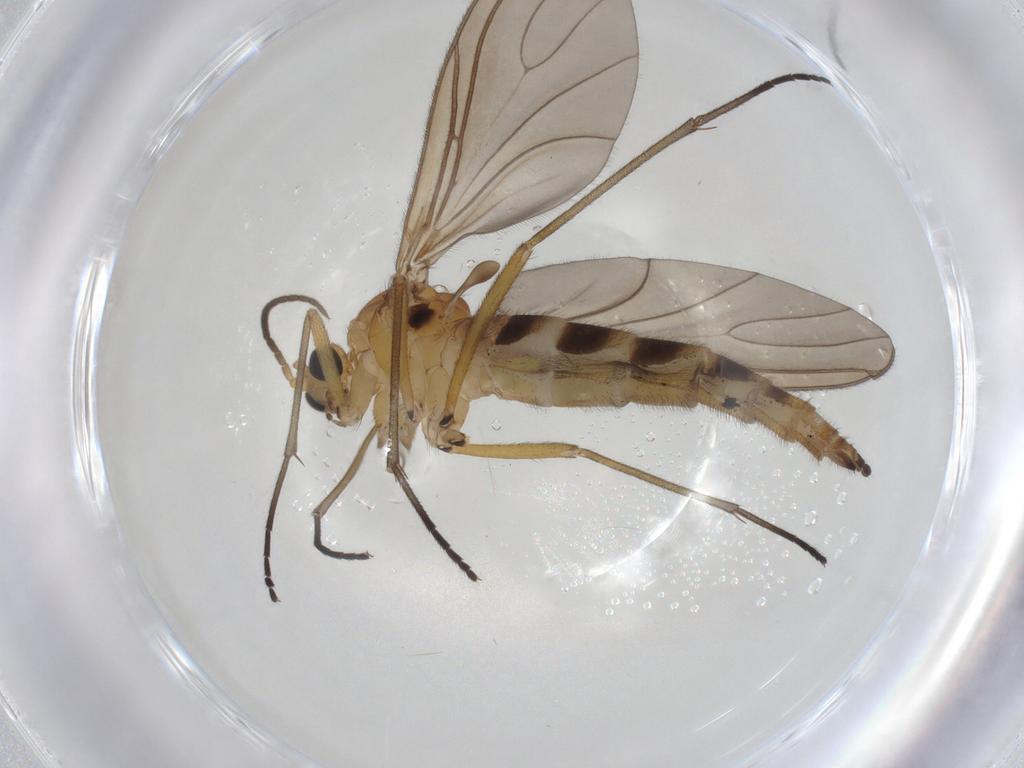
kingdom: Animalia
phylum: Arthropoda
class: Insecta
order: Diptera
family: Sciaridae
